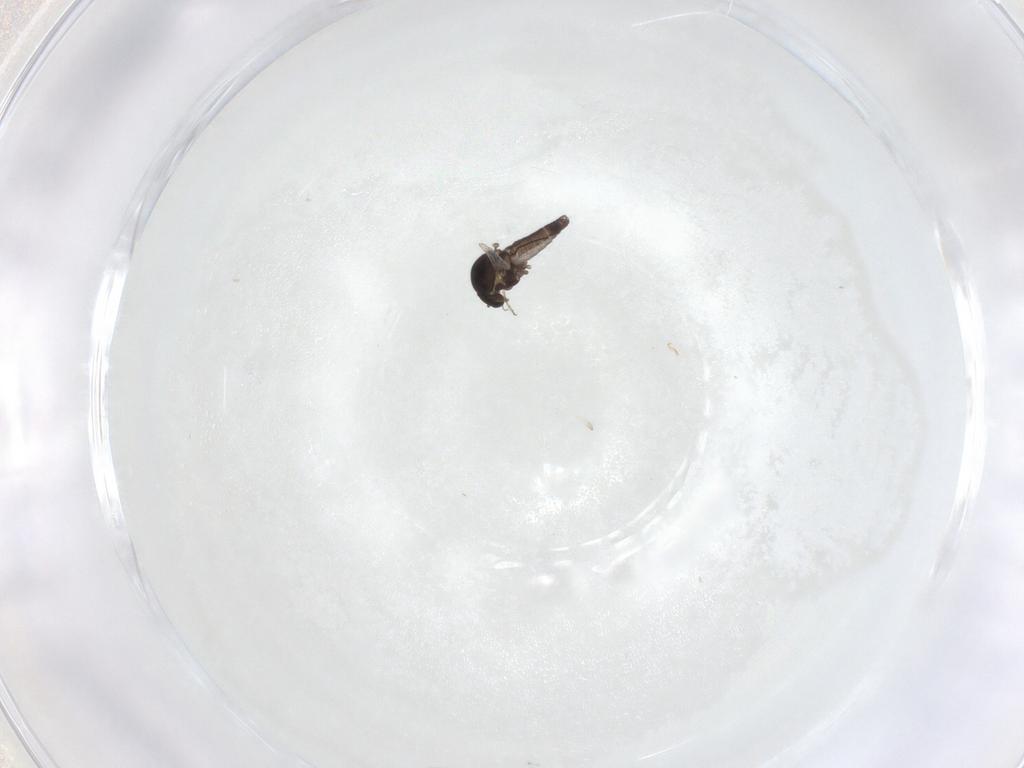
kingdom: Animalia
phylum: Arthropoda
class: Insecta
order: Diptera
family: Ceratopogonidae
